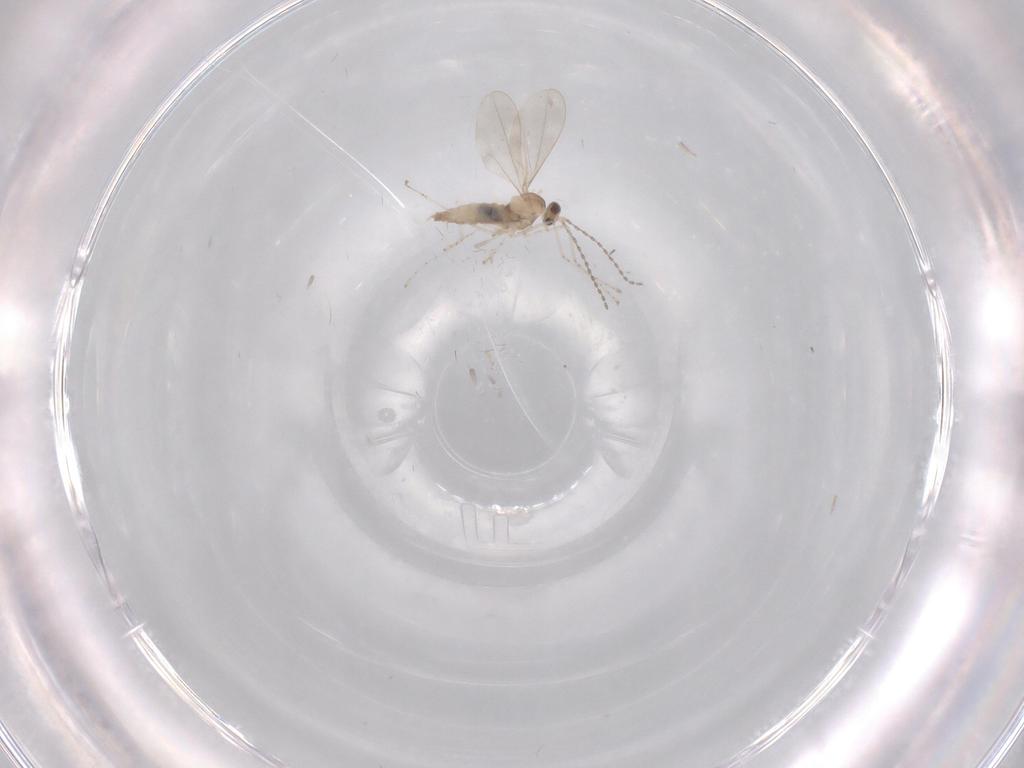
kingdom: Animalia
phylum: Arthropoda
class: Insecta
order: Diptera
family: Cecidomyiidae
